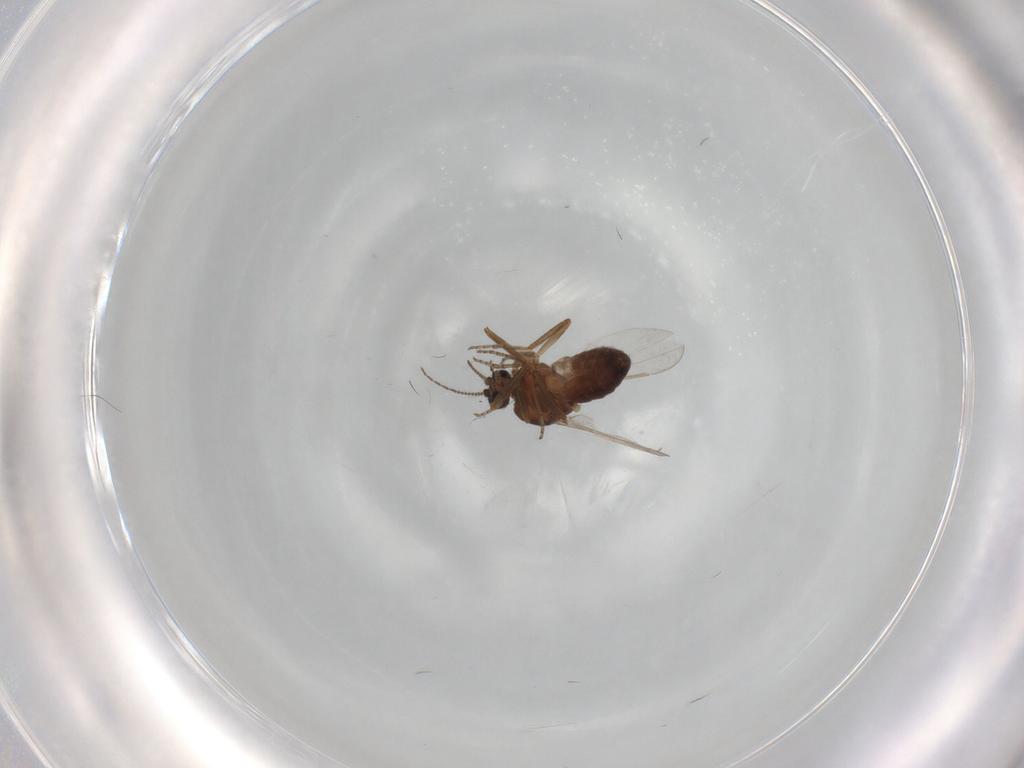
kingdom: Animalia
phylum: Arthropoda
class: Insecta
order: Diptera
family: Ceratopogonidae
